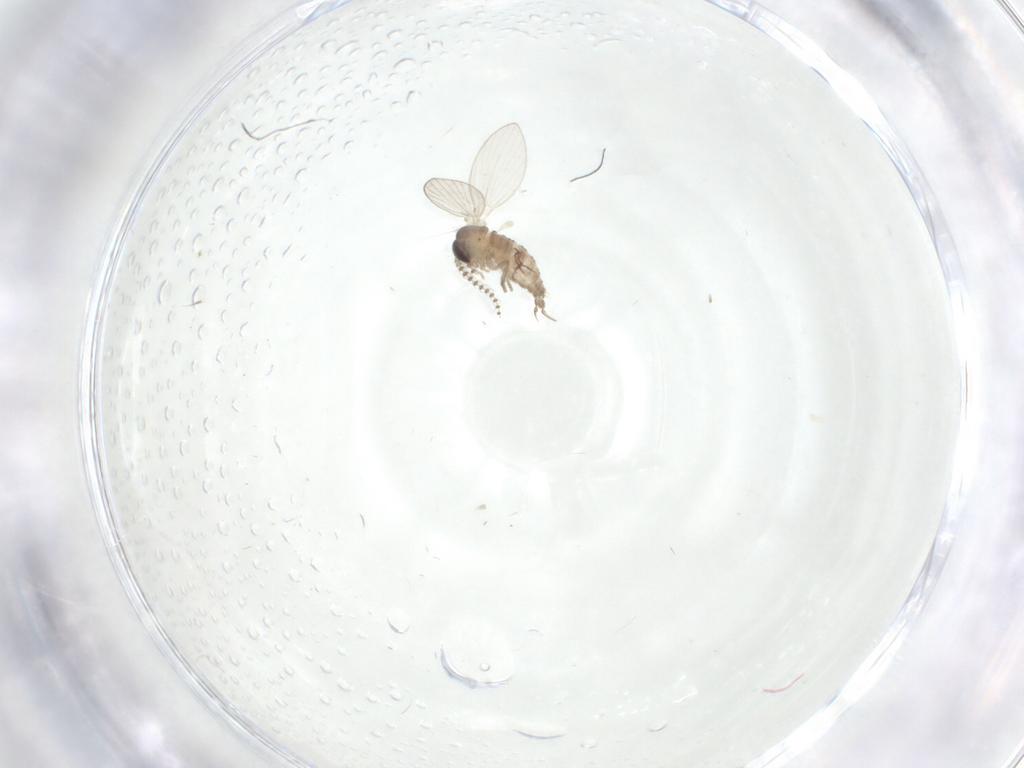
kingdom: Animalia
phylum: Arthropoda
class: Insecta
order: Diptera
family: Psychodidae
